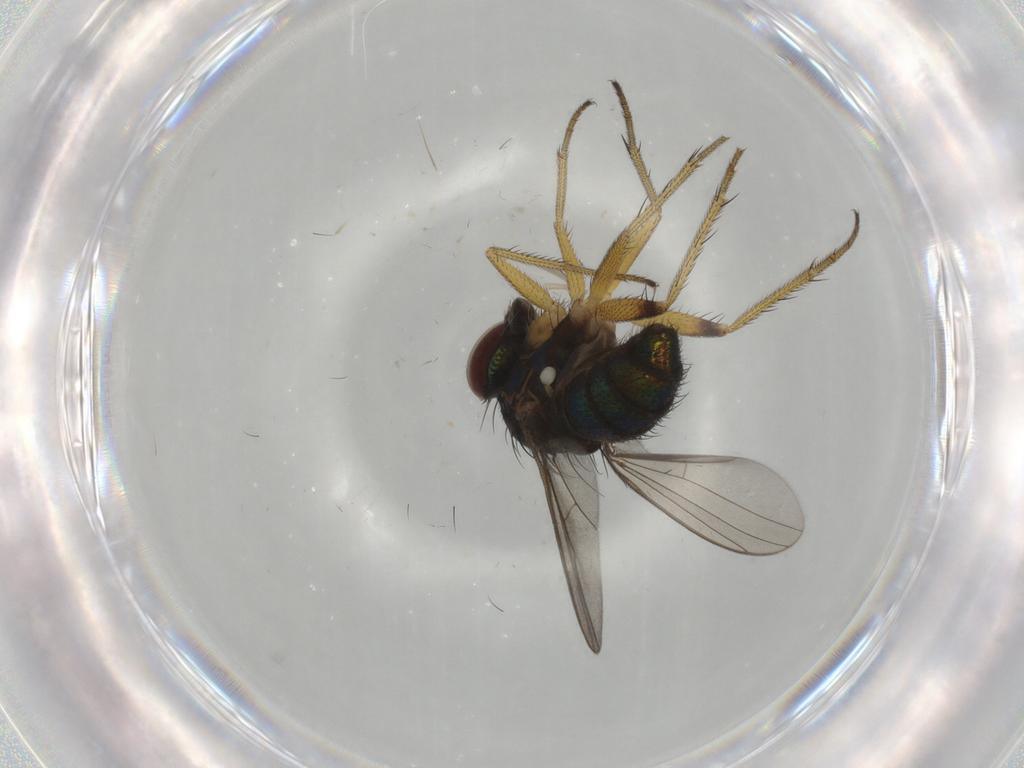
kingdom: Animalia
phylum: Arthropoda
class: Insecta
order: Diptera
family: Dolichopodidae
